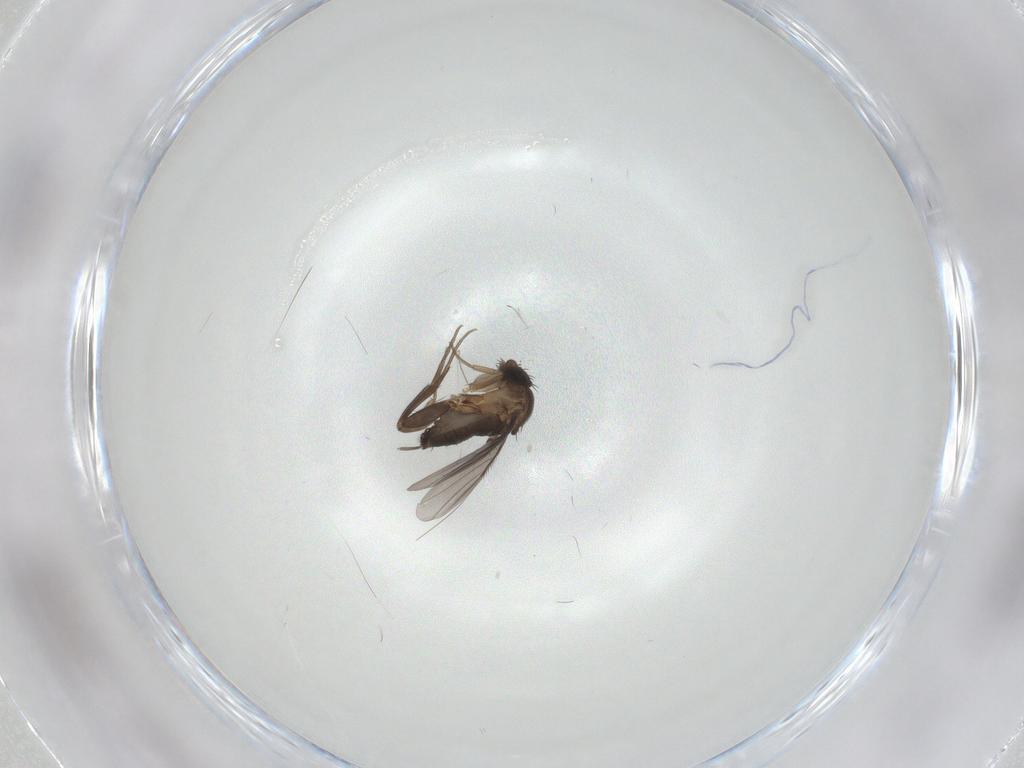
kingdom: Animalia
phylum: Arthropoda
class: Insecta
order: Diptera
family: Phoridae
